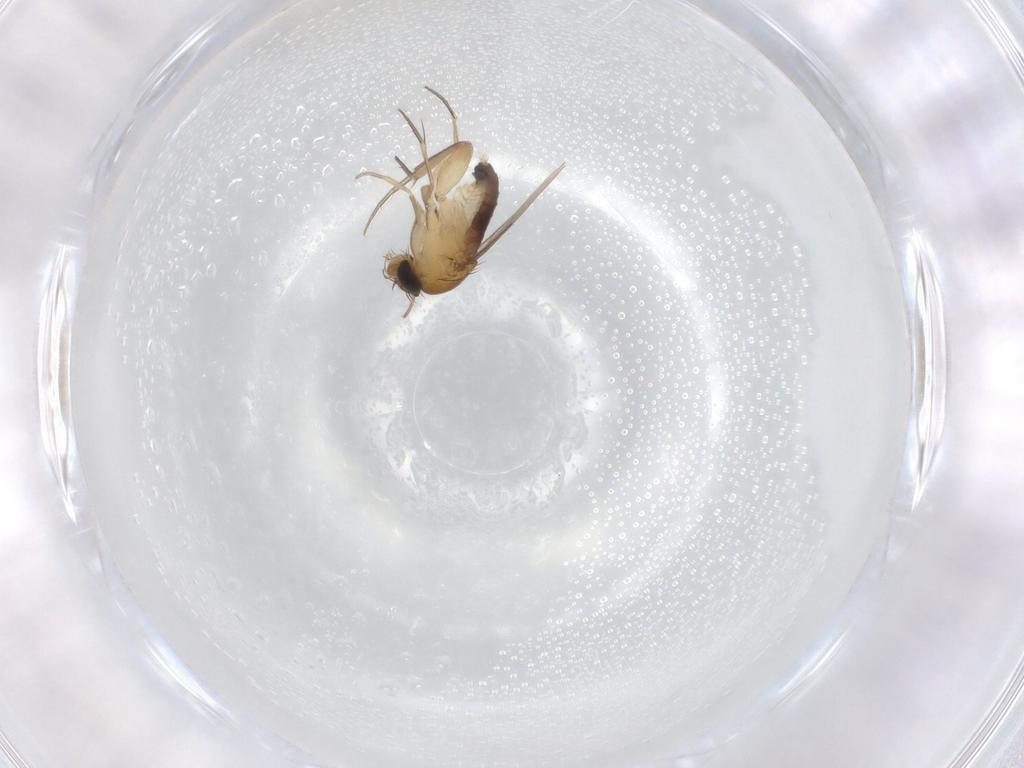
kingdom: Animalia
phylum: Arthropoda
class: Insecta
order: Diptera
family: Phoridae
